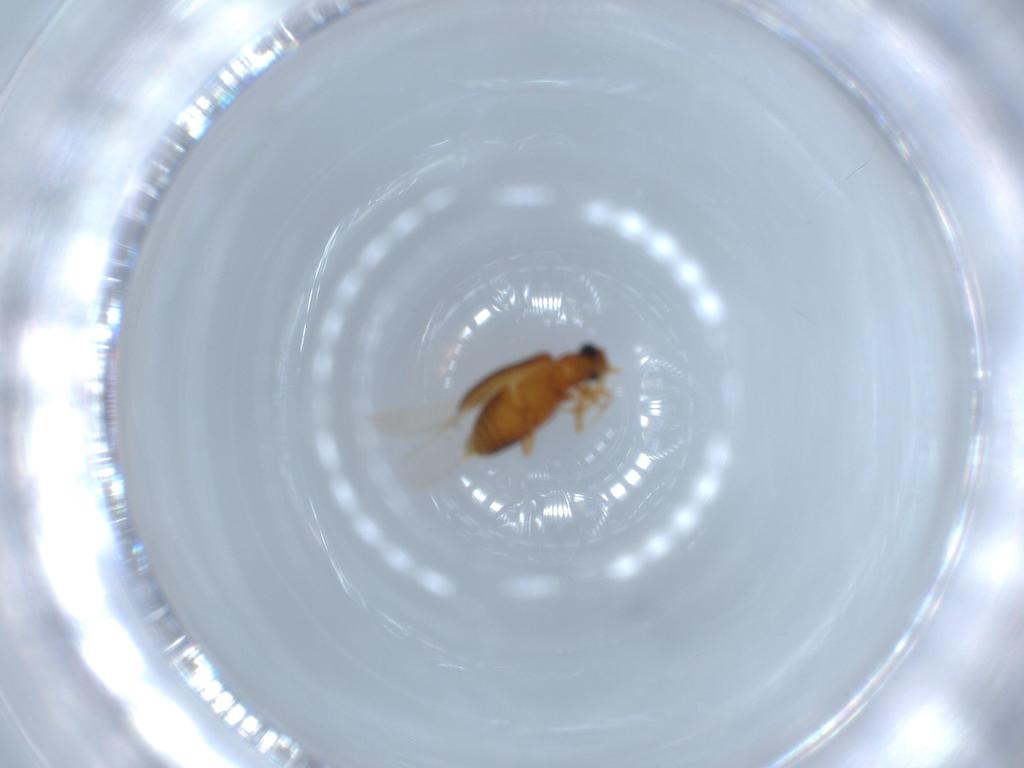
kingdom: Animalia
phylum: Arthropoda
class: Insecta
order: Coleoptera
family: Aderidae
